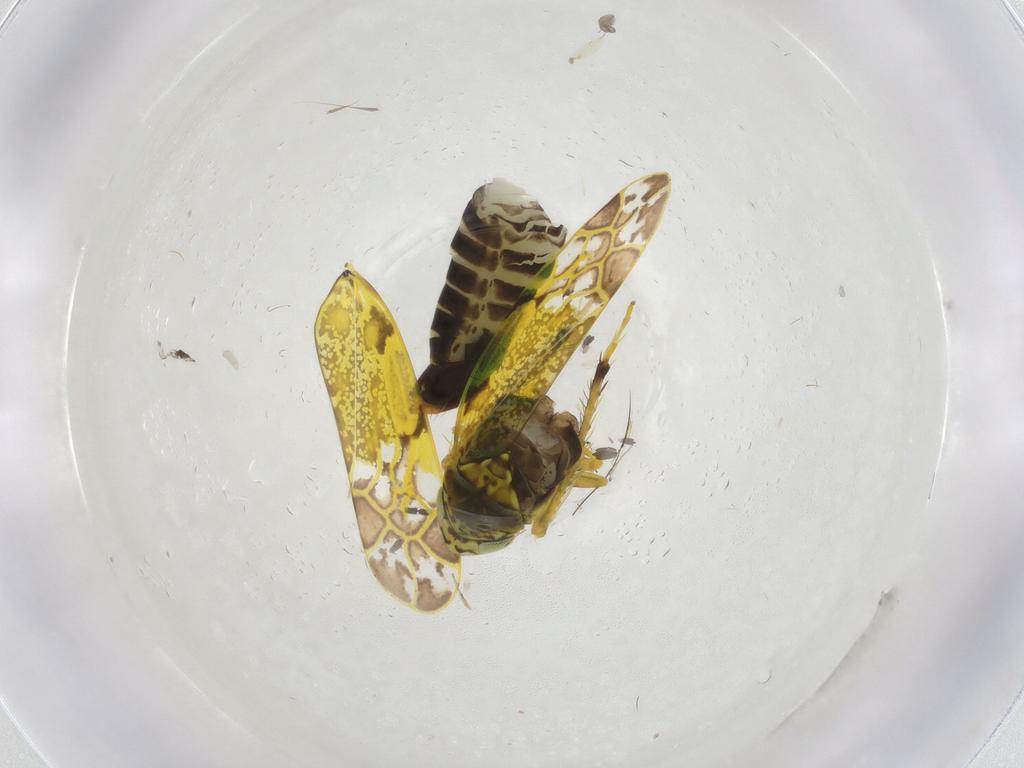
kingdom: Animalia
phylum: Arthropoda
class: Insecta
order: Hemiptera
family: Cicadellidae
